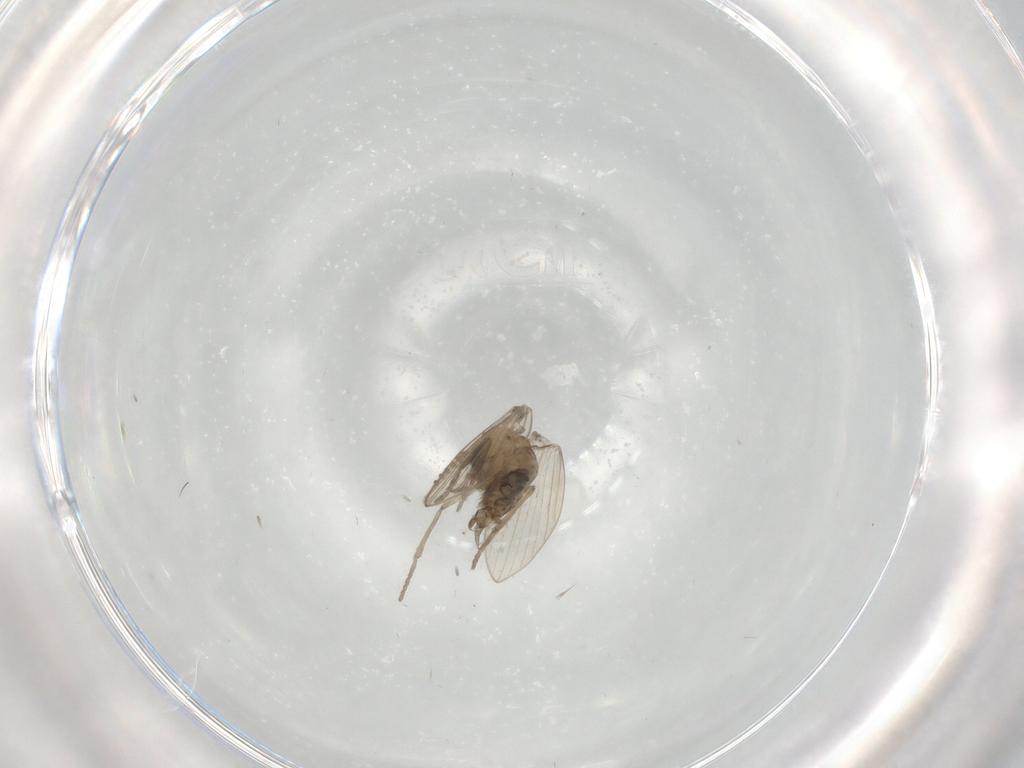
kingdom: Animalia
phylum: Arthropoda
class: Insecta
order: Diptera
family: Psychodidae
